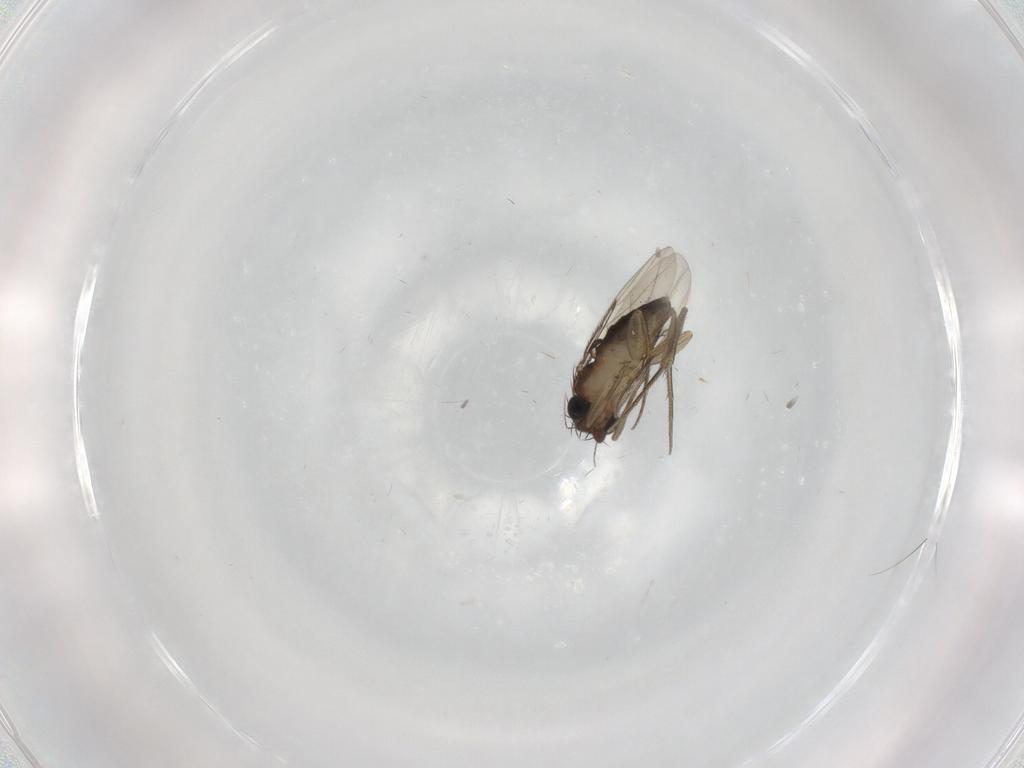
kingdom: Animalia
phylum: Arthropoda
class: Insecta
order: Diptera
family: Phoridae
